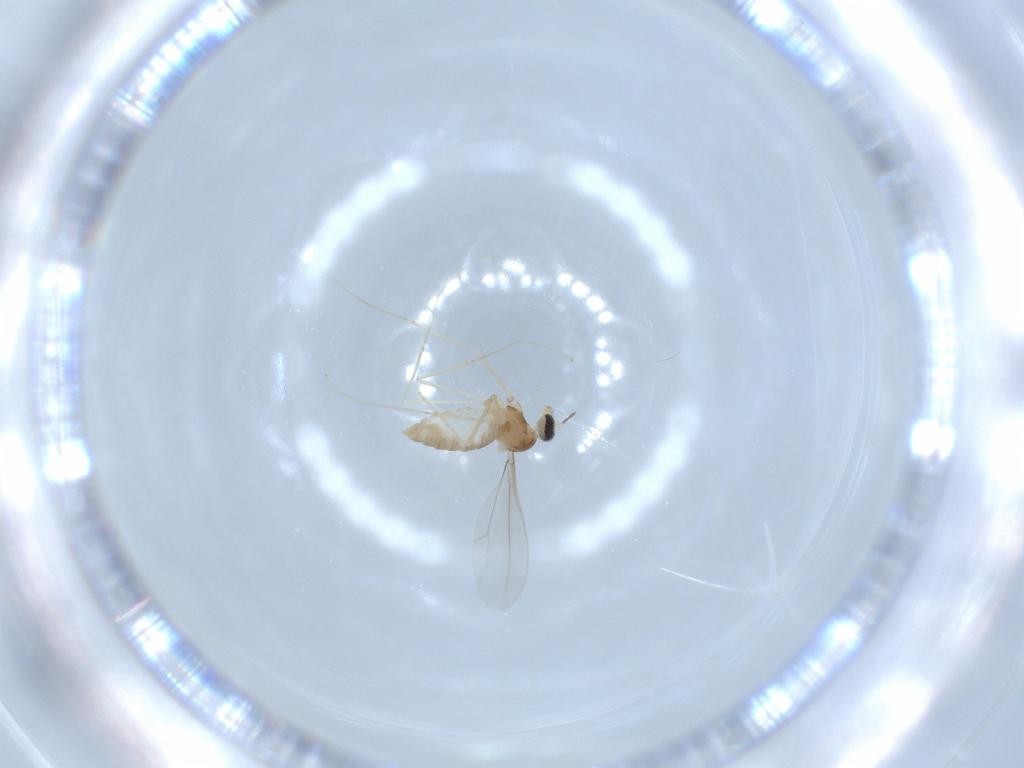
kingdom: Animalia
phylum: Arthropoda
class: Insecta
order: Diptera
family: Cecidomyiidae
